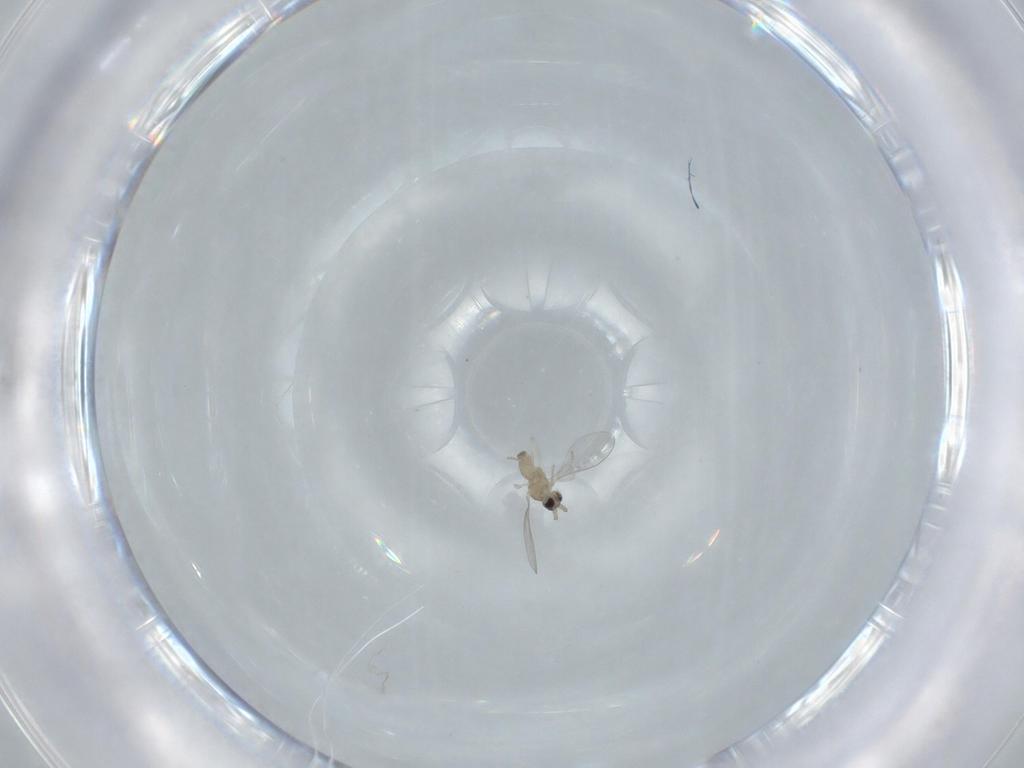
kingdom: Animalia
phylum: Arthropoda
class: Insecta
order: Diptera
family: Cecidomyiidae
